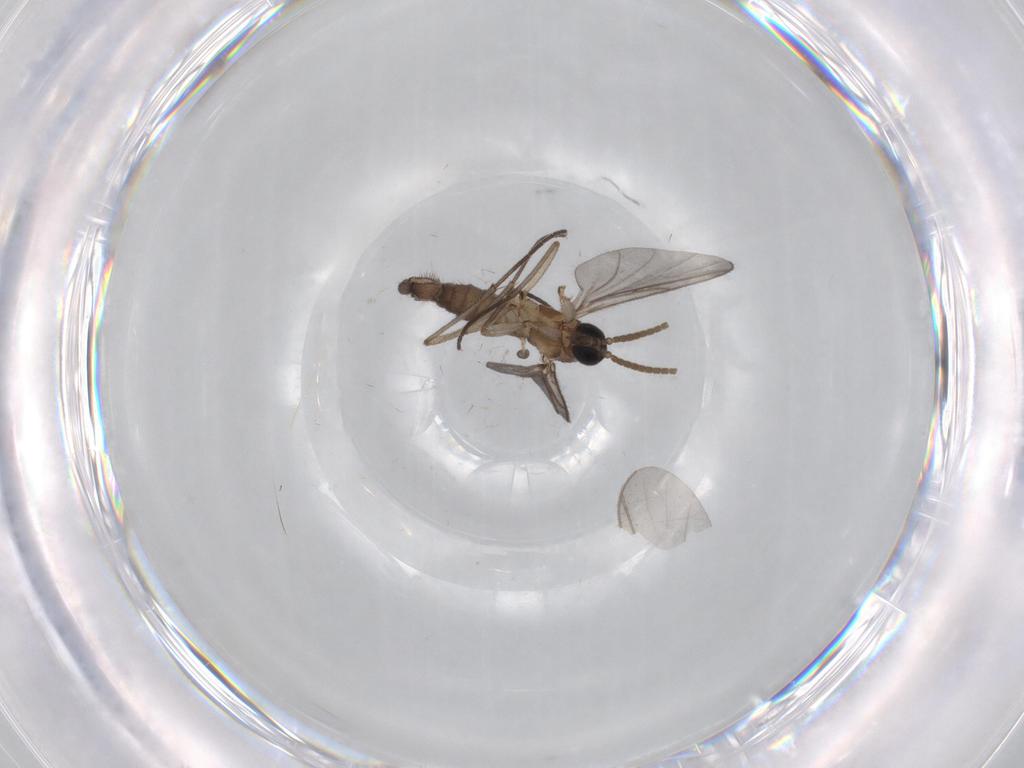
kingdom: Animalia
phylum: Arthropoda
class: Insecta
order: Diptera
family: Sciaridae
